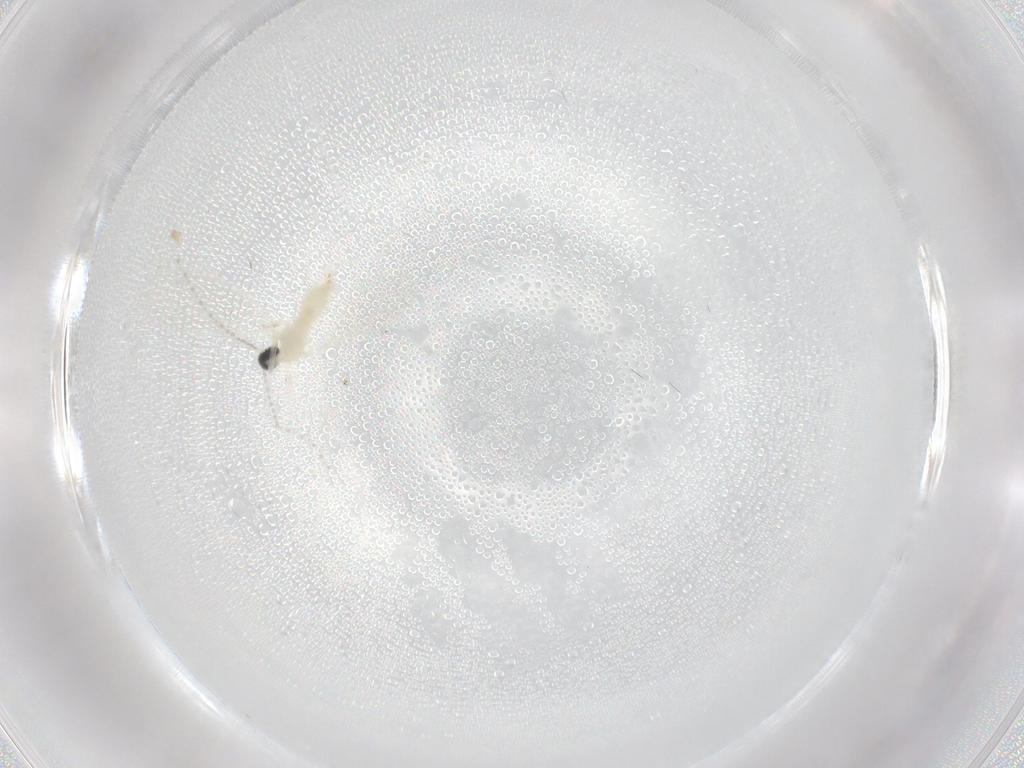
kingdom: Animalia
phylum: Arthropoda
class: Insecta
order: Diptera
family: Cecidomyiidae
